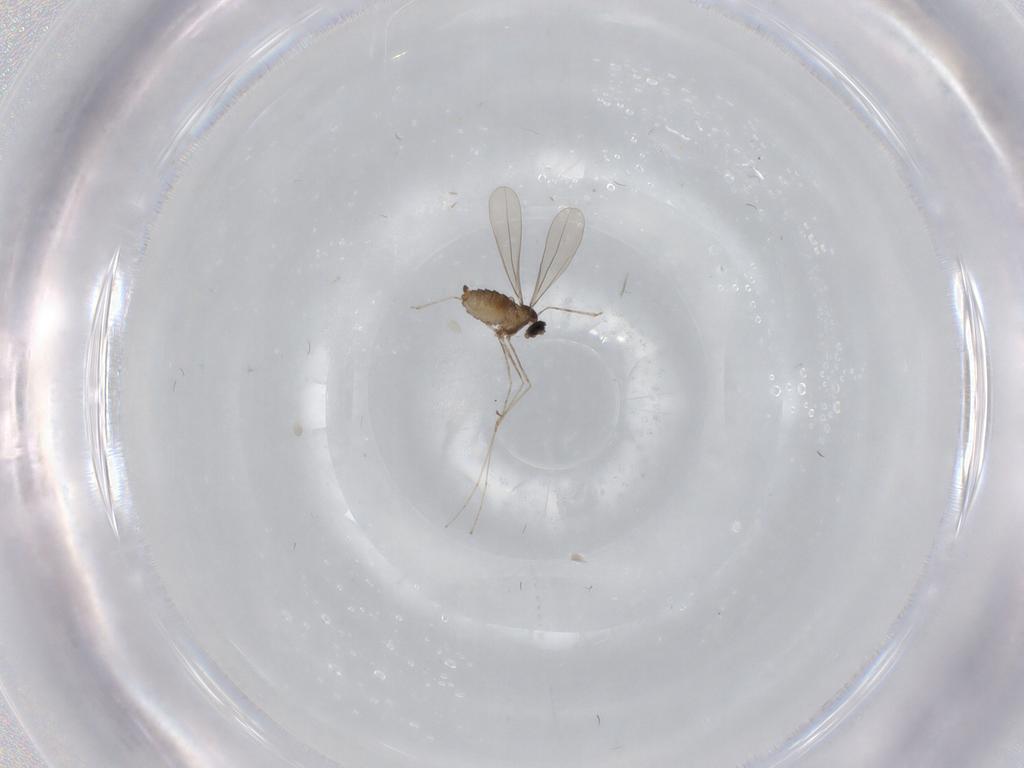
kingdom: Animalia
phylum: Arthropoda
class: Insecta
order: Diptera
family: Cecidomyiidae
